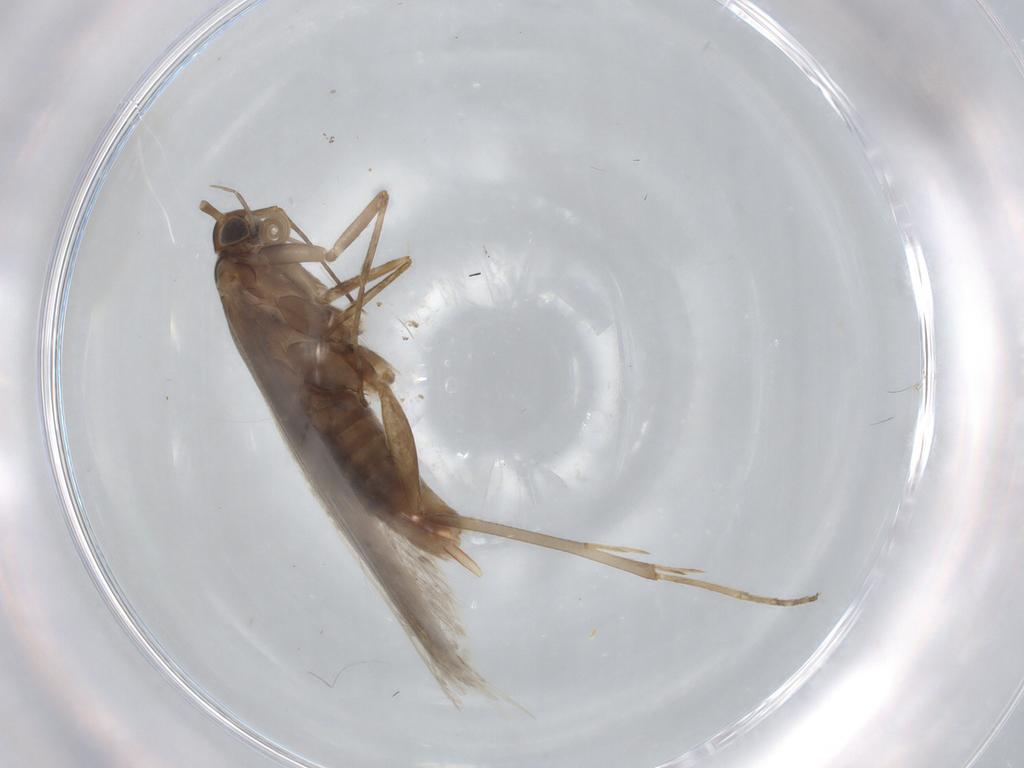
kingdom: Animalia
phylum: Arthropoda
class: Insecta
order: Lepidoptera
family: Coleophoridae
